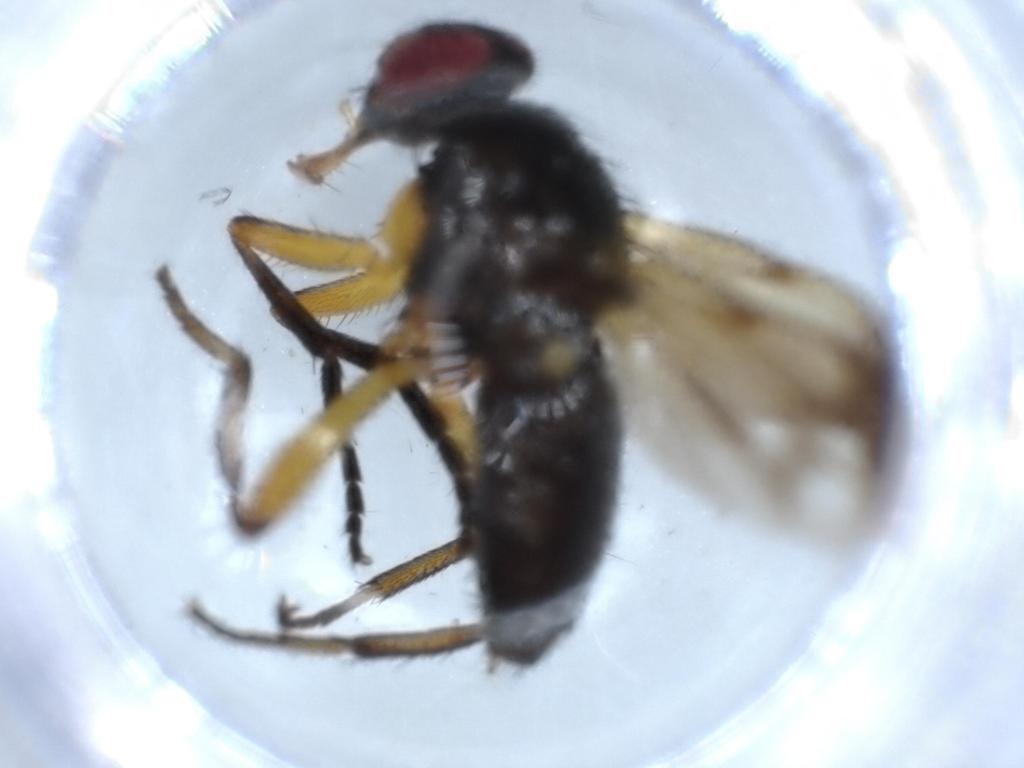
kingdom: Animalia
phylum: Arthropoda
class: Insecta
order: Diptera
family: Calliphoridae
